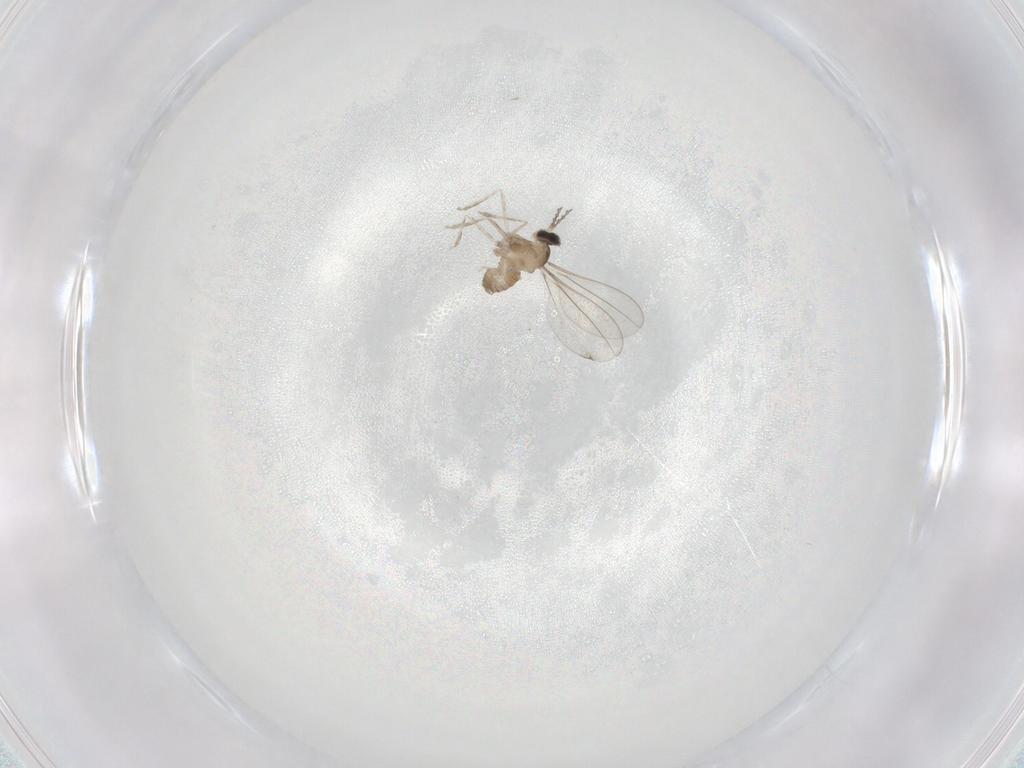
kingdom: Animalia
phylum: Arthropoda
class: Insecta
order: Diptera
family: Cecidomyiidae
